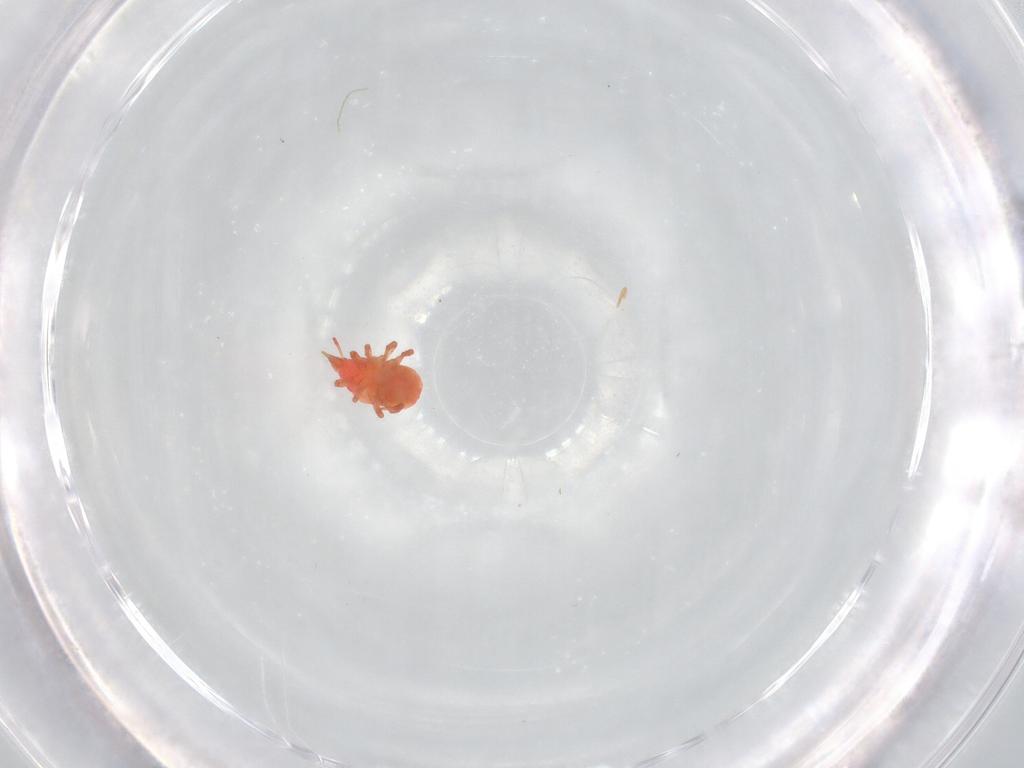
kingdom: Animalia
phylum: Arthropoda
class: Arachnida
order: Trombidiformes
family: Bdellidae
